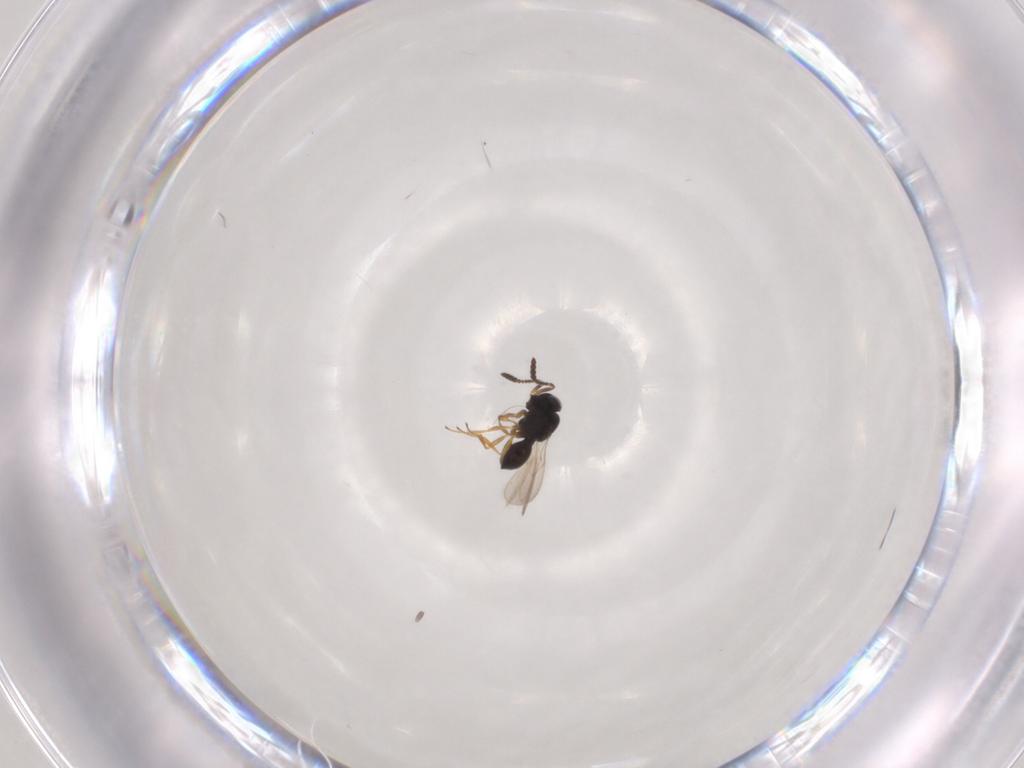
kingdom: Animalia
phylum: Arthropoda
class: Insecta
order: Hymenoptera
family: Scelionidae
